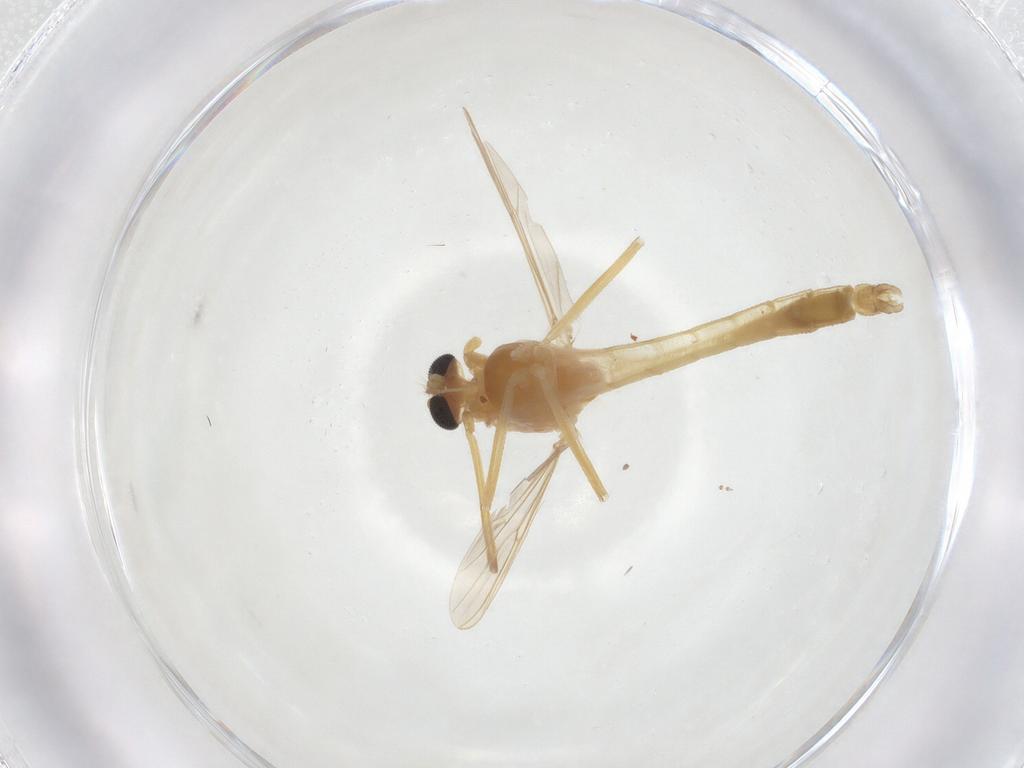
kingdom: Animalia
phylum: Arthropoda
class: Insecta
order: Diptera
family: Chironomidae
